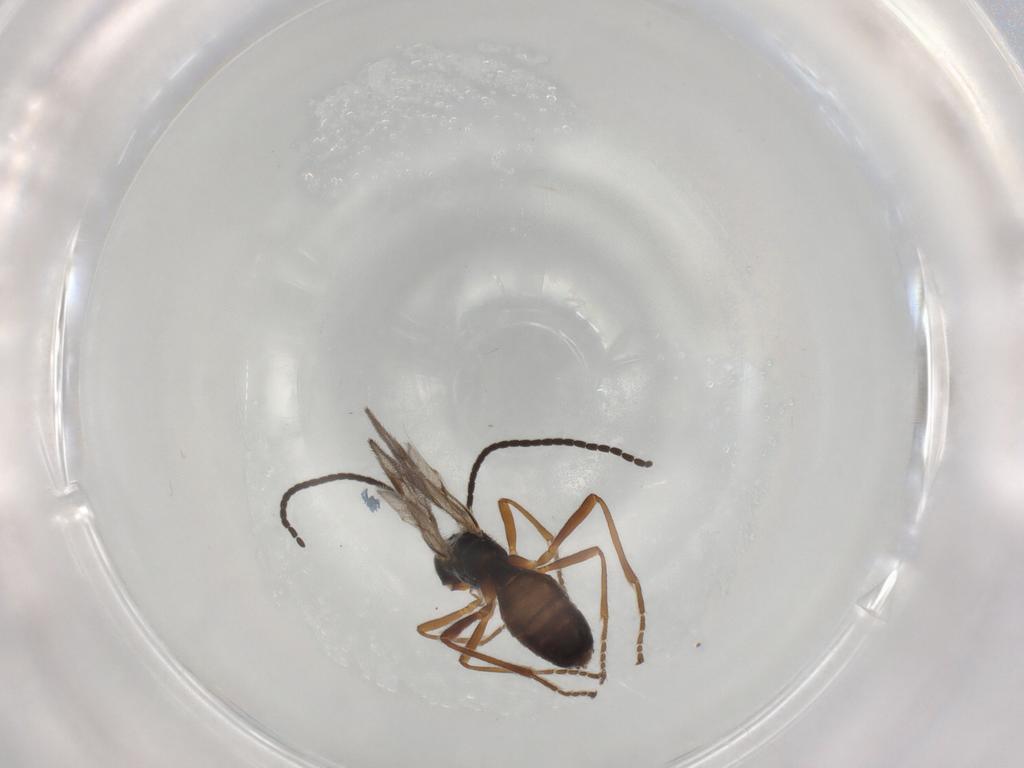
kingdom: Animalia
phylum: Arthropoda
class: Insecta
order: Hymenoptera
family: Braconidae
